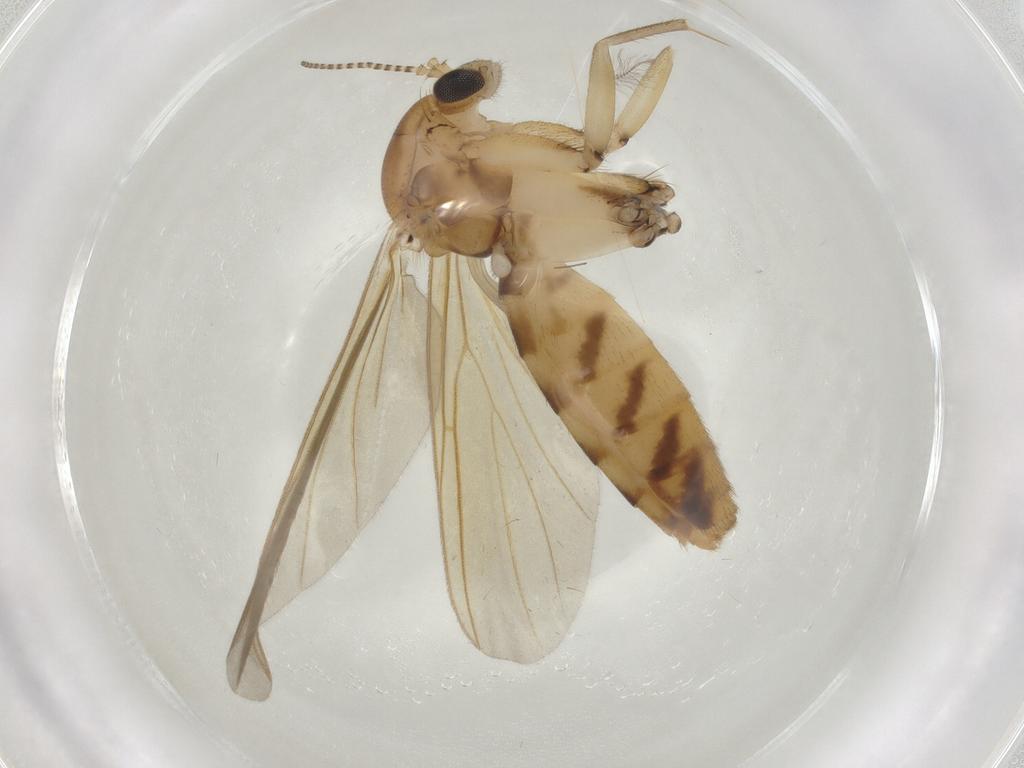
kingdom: Animalia
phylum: Arthropoda
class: Insecta
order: Diptera
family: Mycetophilidae
